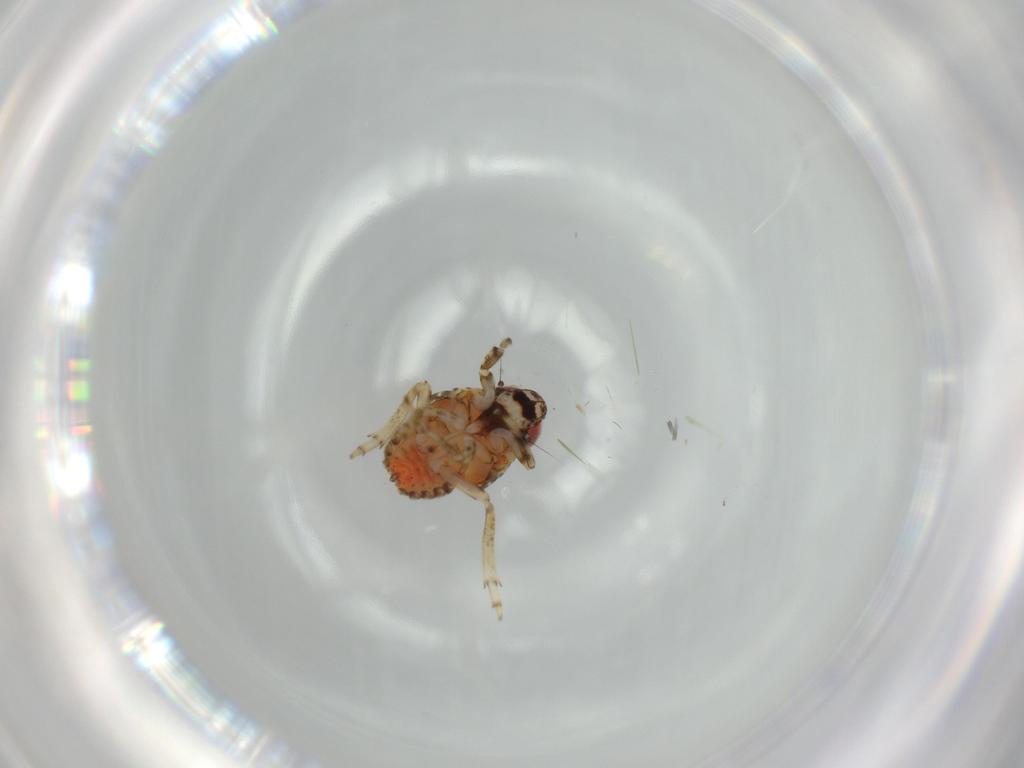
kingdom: Animalia
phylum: Arthropoda
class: Insecta
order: Hemiptera
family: Issidae
